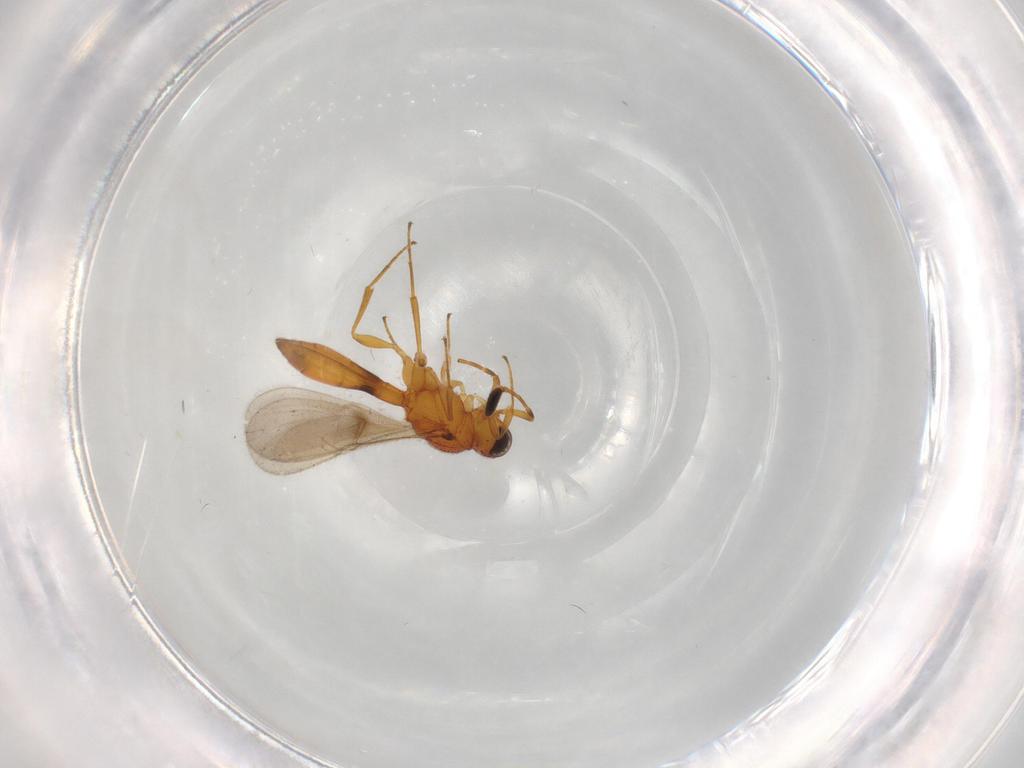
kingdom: Animalia
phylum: Arthropoda
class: Insecta
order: Hymenoptera
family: Scelionidae
